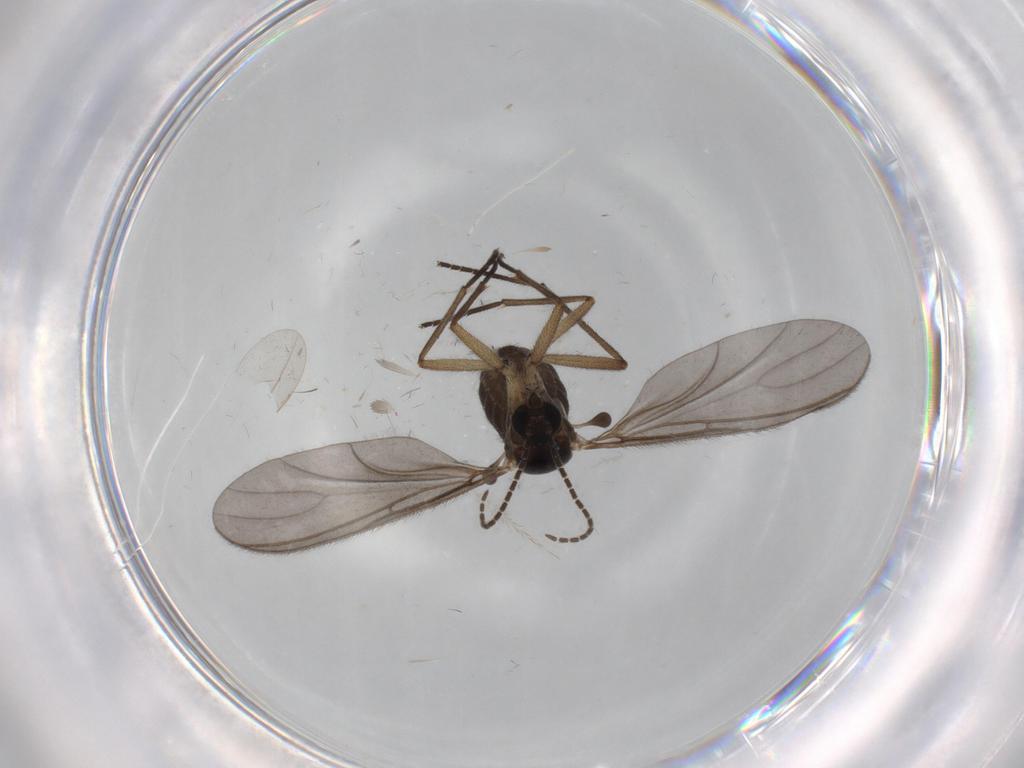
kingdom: Animalia
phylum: Arthropoda
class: Insecta
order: Diptera
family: Sciaridae
